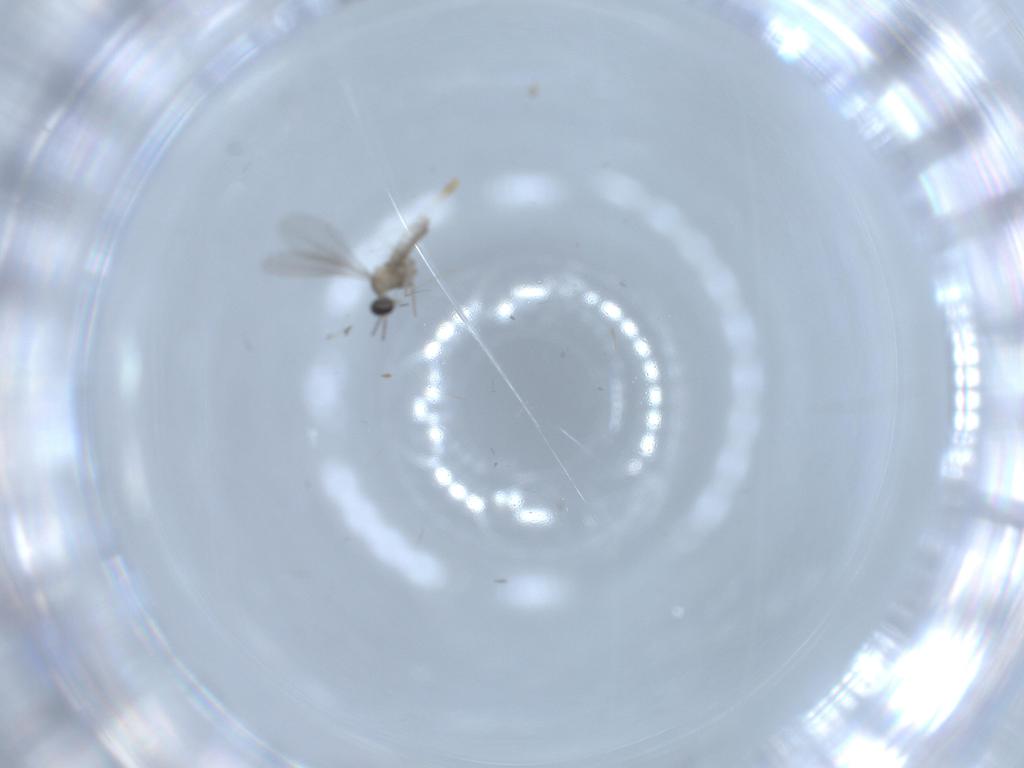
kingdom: Animalia
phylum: Arthropoda
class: Insecta
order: Diptera
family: Cecidomyiidae
